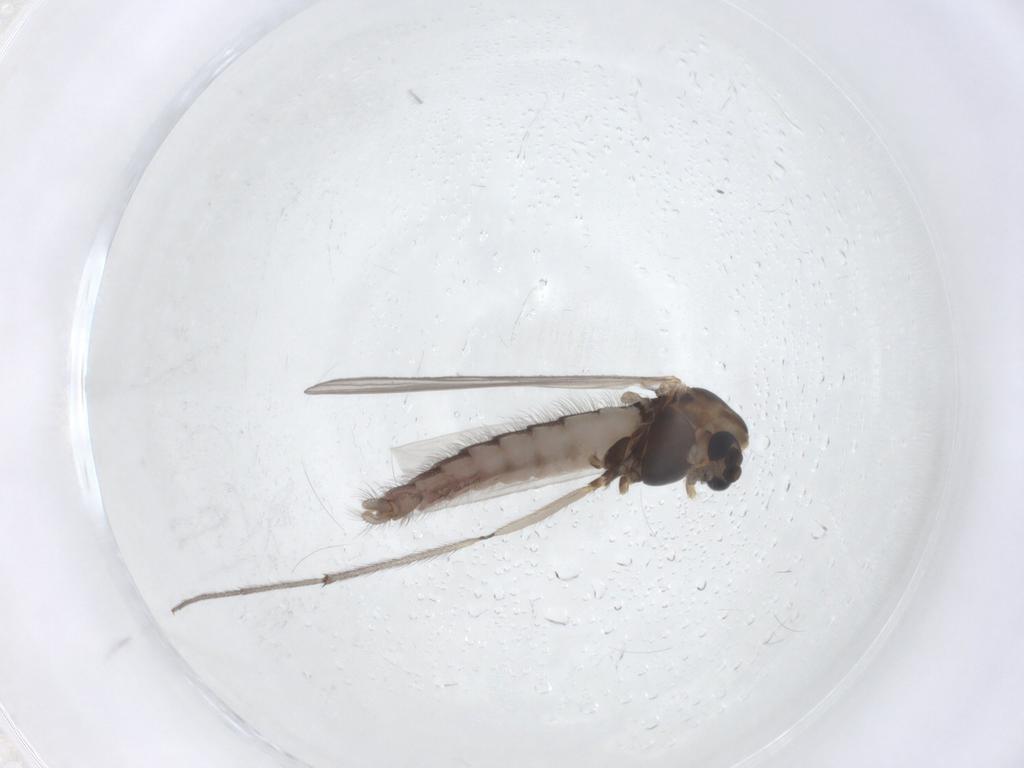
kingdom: Animalia
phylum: Arthropoda
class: Insecta
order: Diptera
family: Chironomidae
